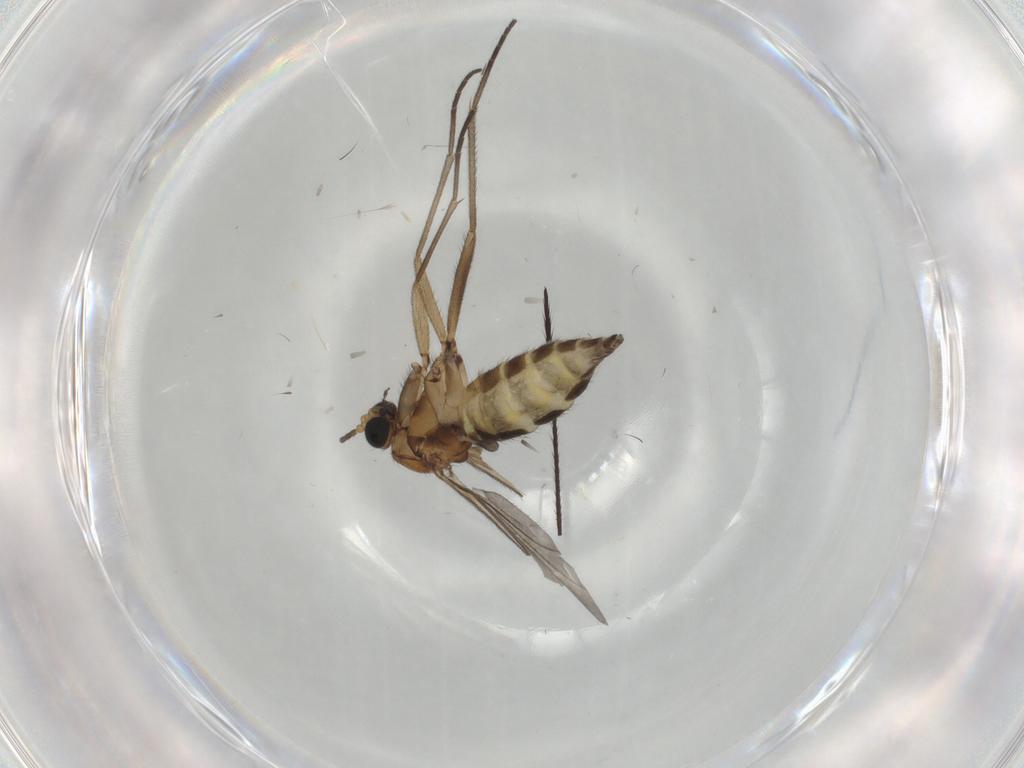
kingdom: Animalia
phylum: Arthropoda
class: Insecta
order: Diptera
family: Sciaridae
